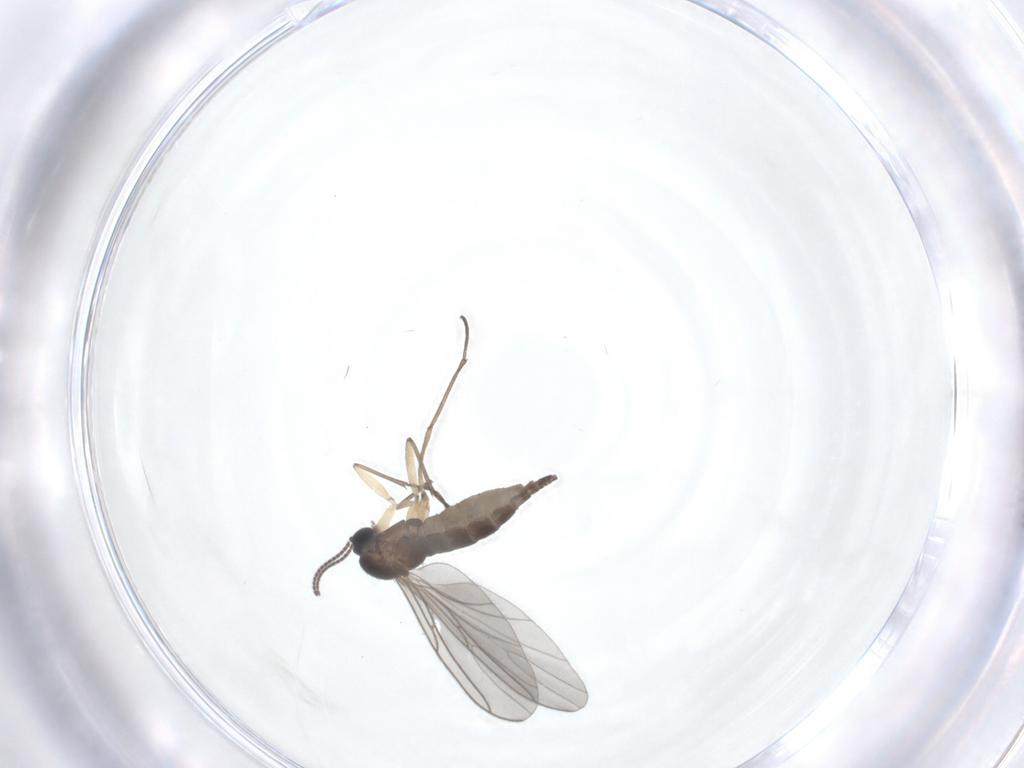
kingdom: Animalia
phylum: Arthropoda
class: Insecta
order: Diptera
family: Sciaridae
